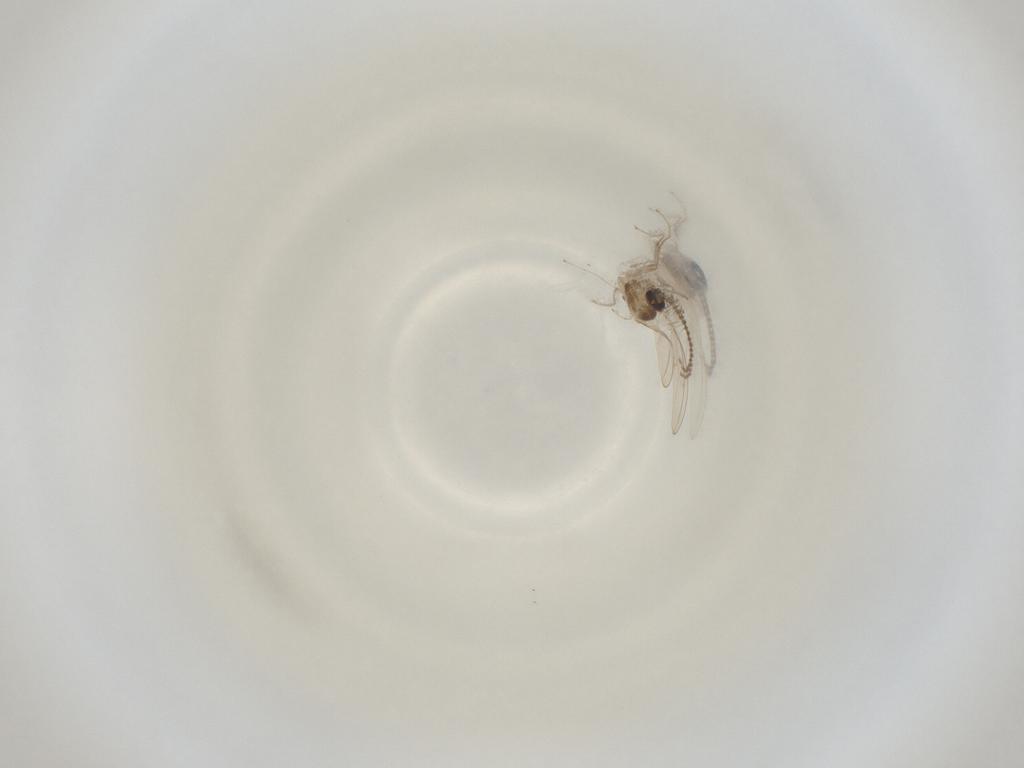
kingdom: Animalia
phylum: Arthropoda
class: Insecta
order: Diptera
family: Cecidomyiidae
